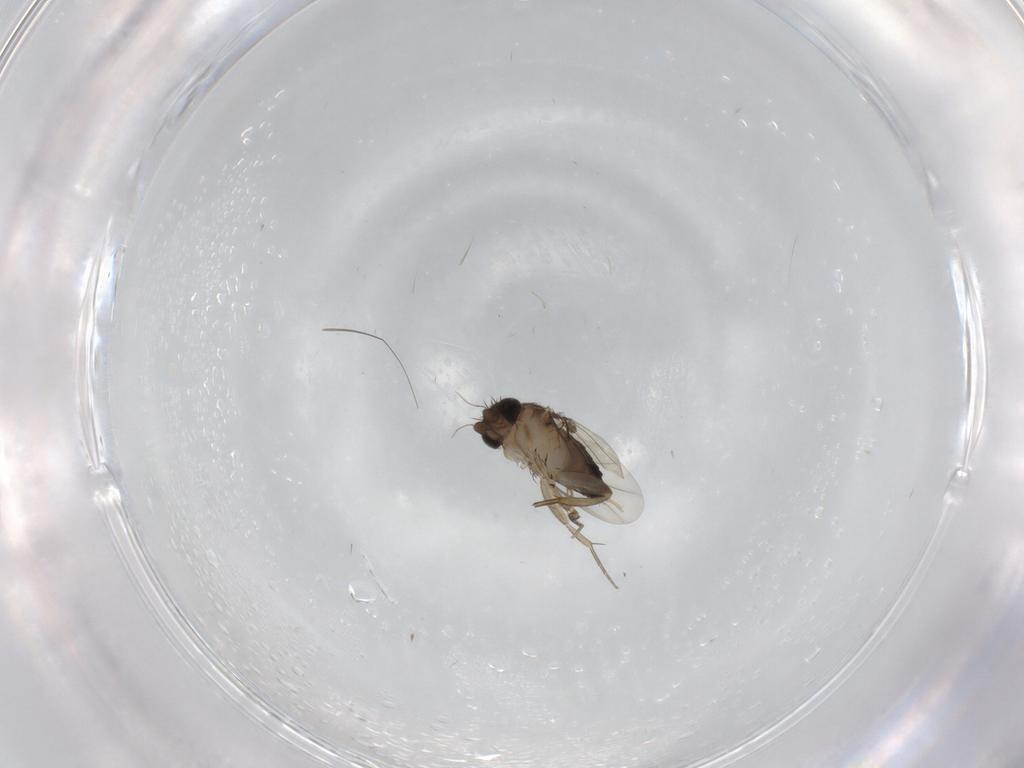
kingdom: Animalia
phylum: Arthropoda
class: Insecta
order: Diptera
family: Phoridae
